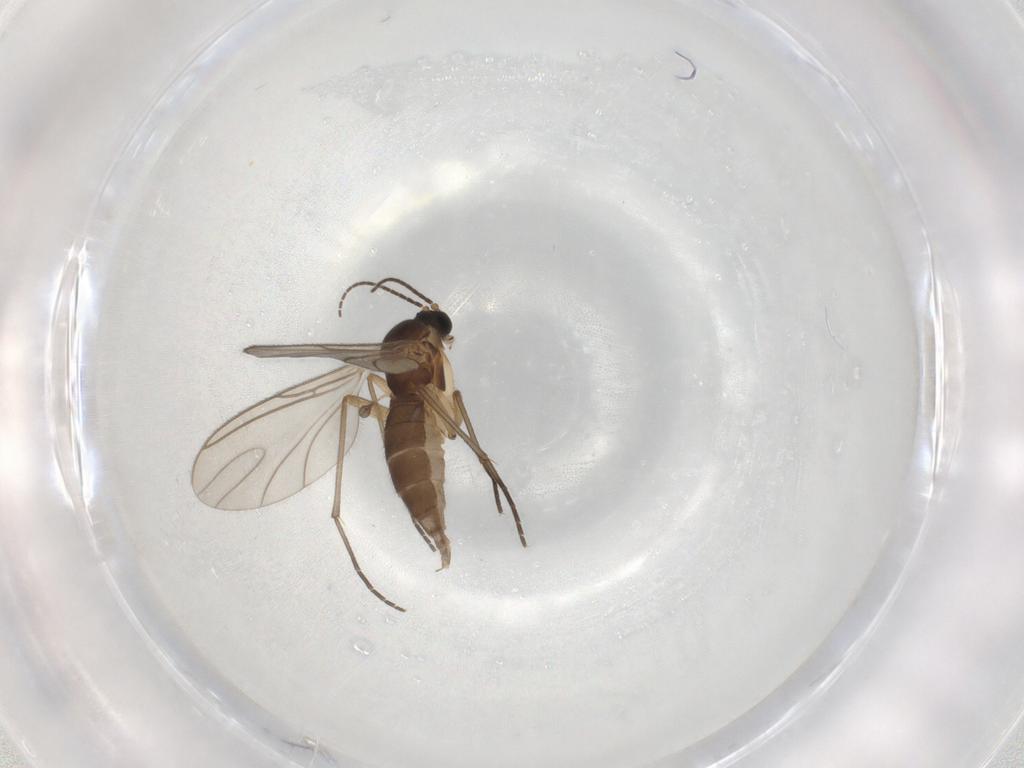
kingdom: Animalia
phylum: Arthropoda
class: Insecta
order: Diptera
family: Sciaridae
